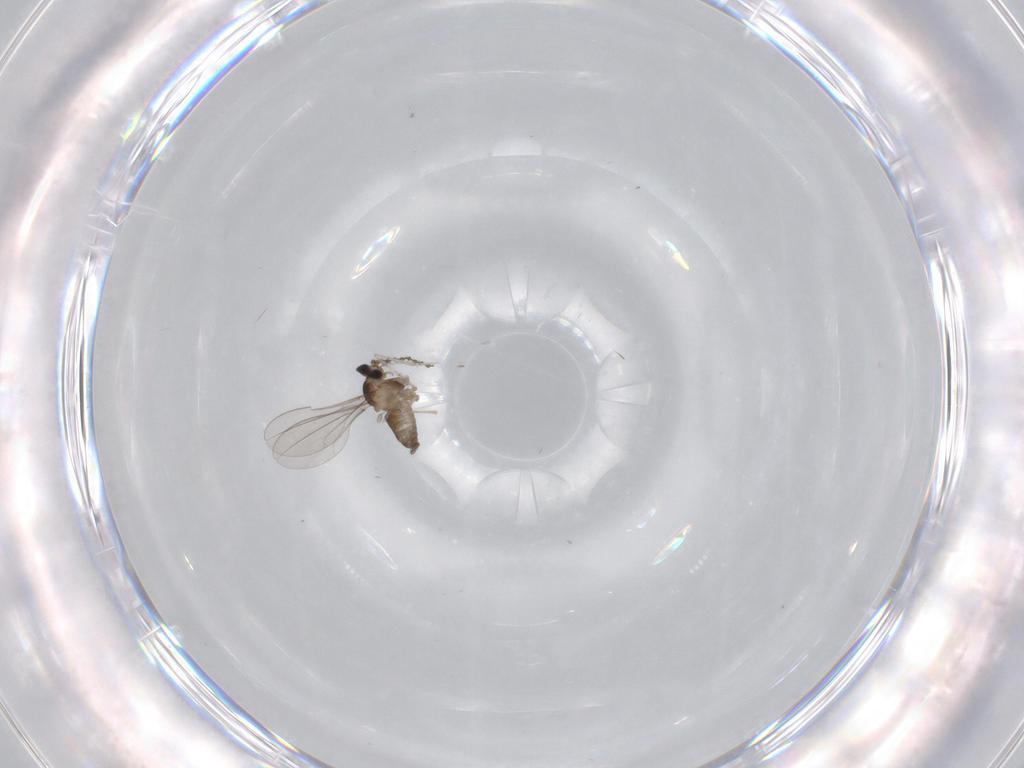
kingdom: Animalia
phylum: Arthropoda
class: Insecta
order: Diptera
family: Cecidomyiidae
